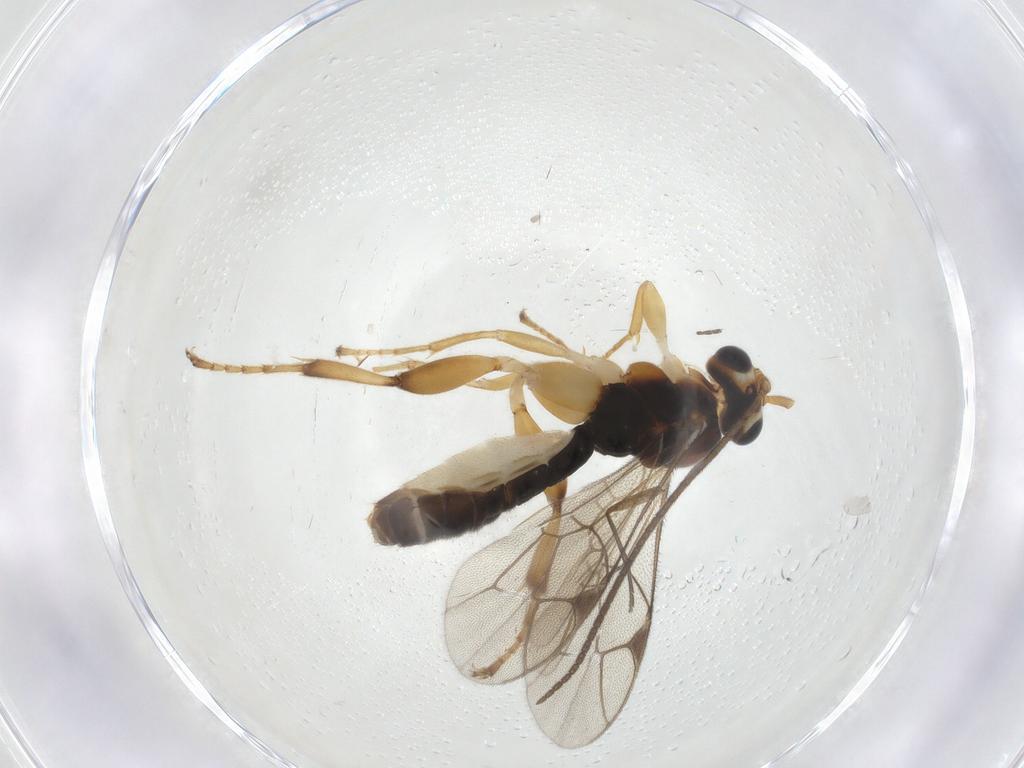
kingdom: Animalia
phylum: Arthropoda
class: Insecta
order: Hymenoptera
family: Ichneumonidae
